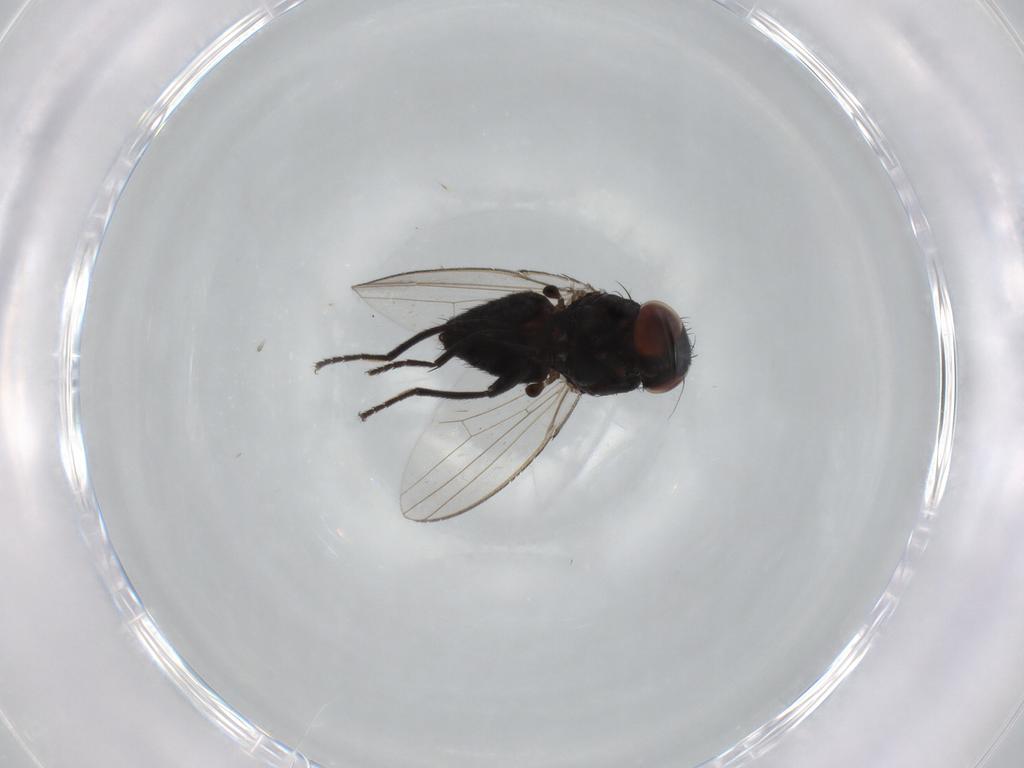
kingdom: Animalia
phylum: Arthropoda
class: Insecta
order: Diptera
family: Milichiidae
